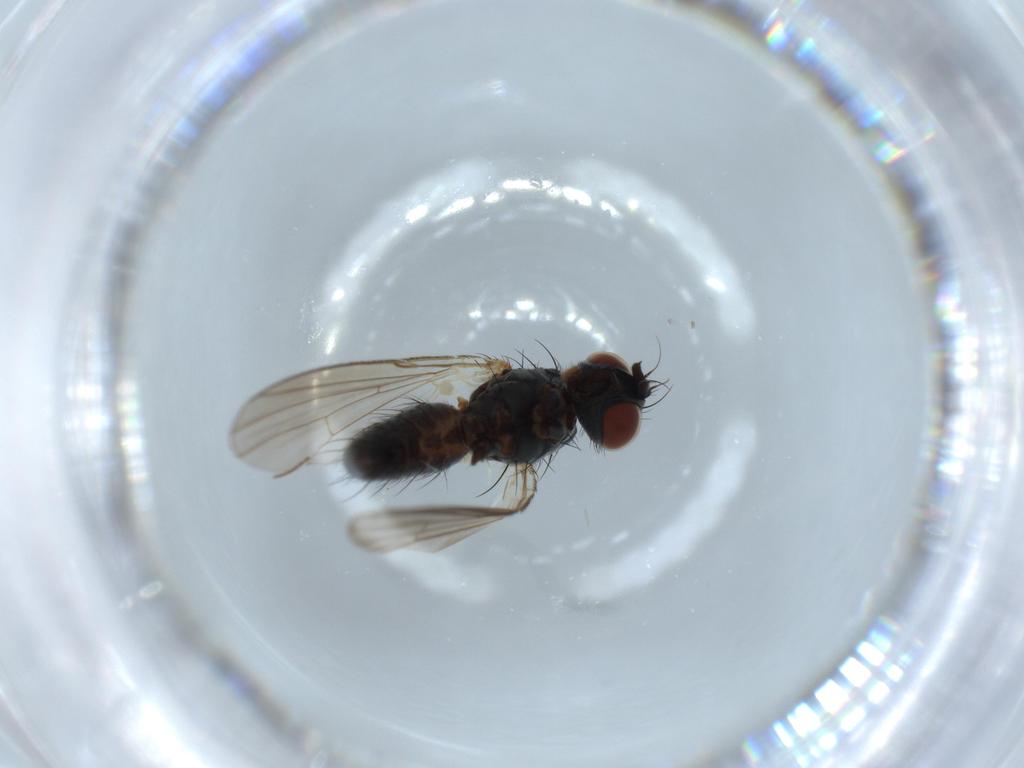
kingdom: Animalia
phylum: Arthropoda
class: Insecta
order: Diptera
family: Sciaridae
